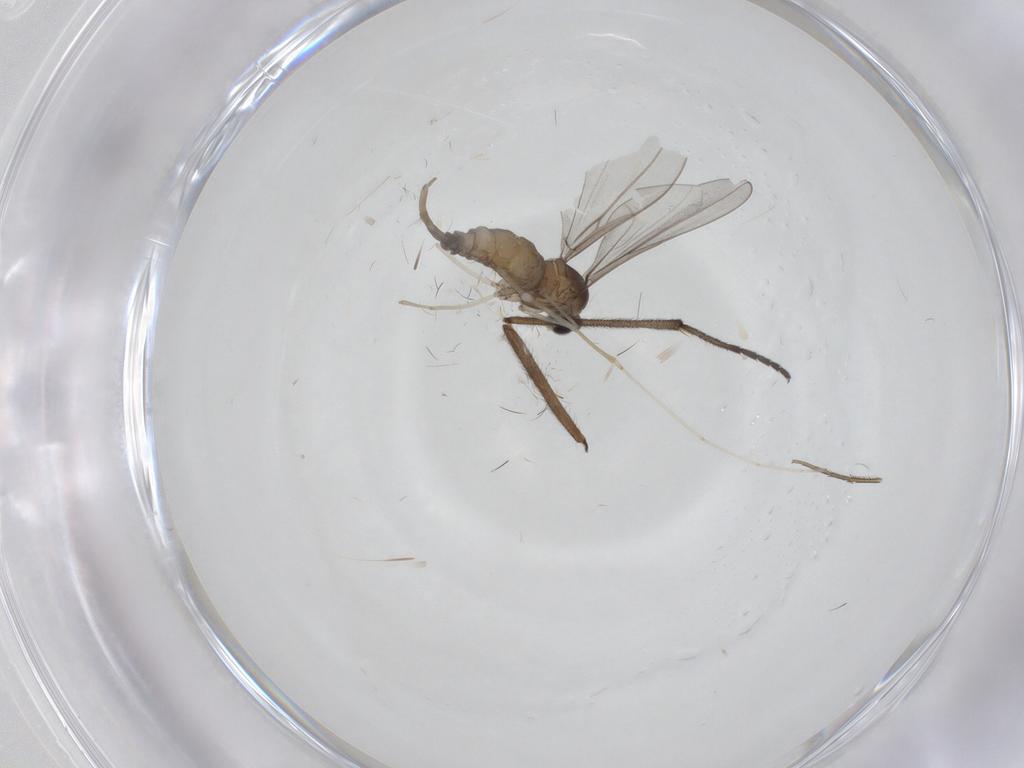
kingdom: Animalia
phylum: Arthropoda
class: Insecta
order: Diptera
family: Cecidomyiidae
